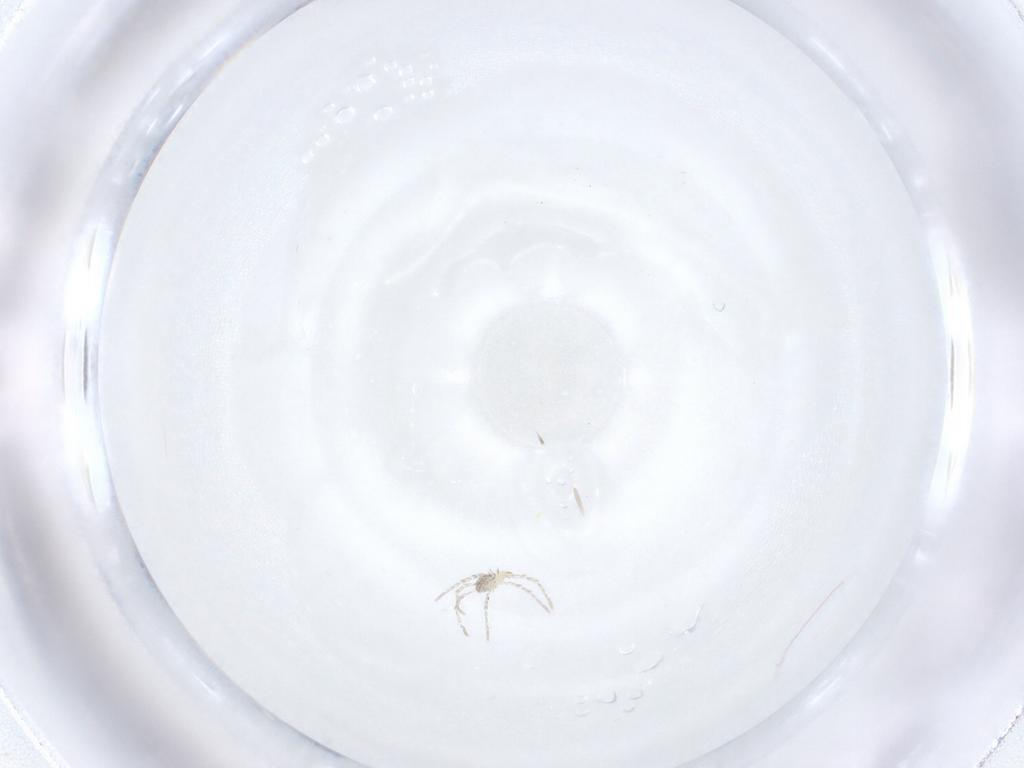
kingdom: Animalia
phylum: Arthropoda
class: Arachnida
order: Trombidiformes
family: Erythraeidae
